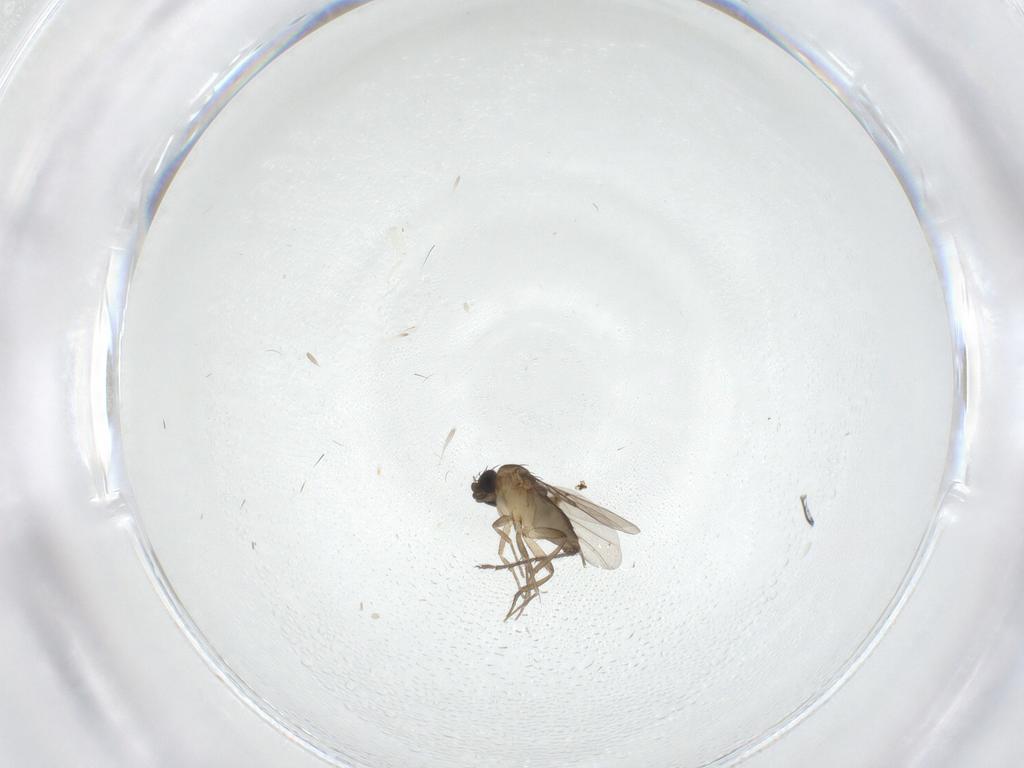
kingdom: Animalia
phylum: Arthropoda
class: Insecta
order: Diptera
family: Phoridae
